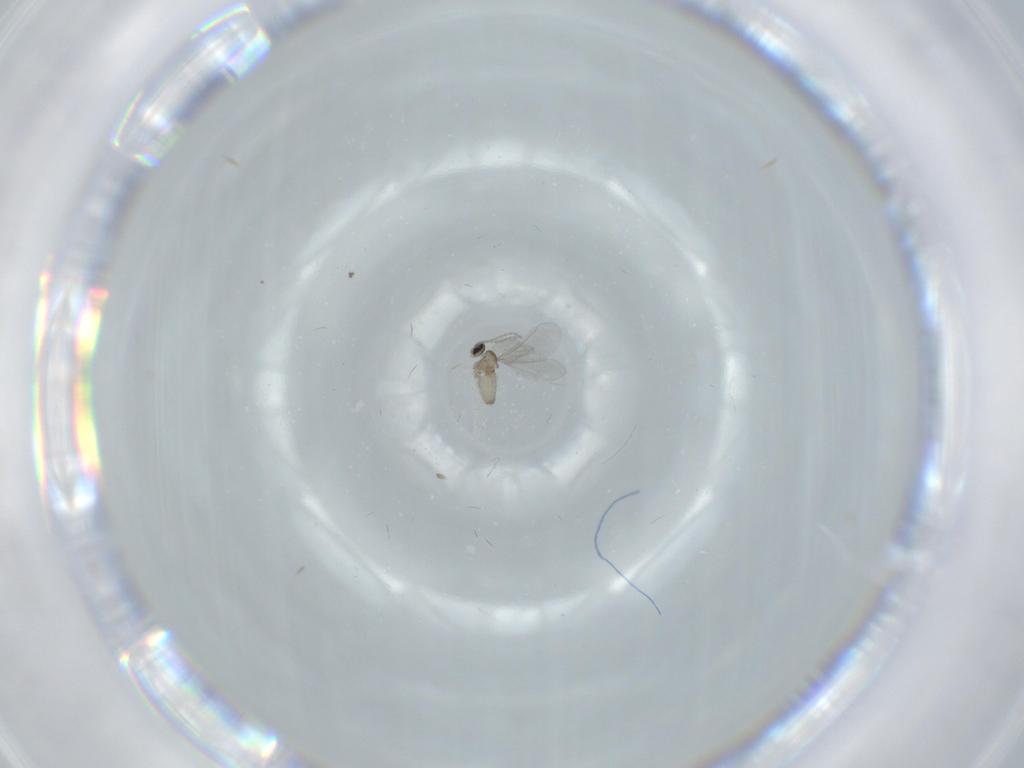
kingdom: Animalia
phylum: Arthropoda
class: Insecta
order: Diptera
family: Cecidomyiidae
